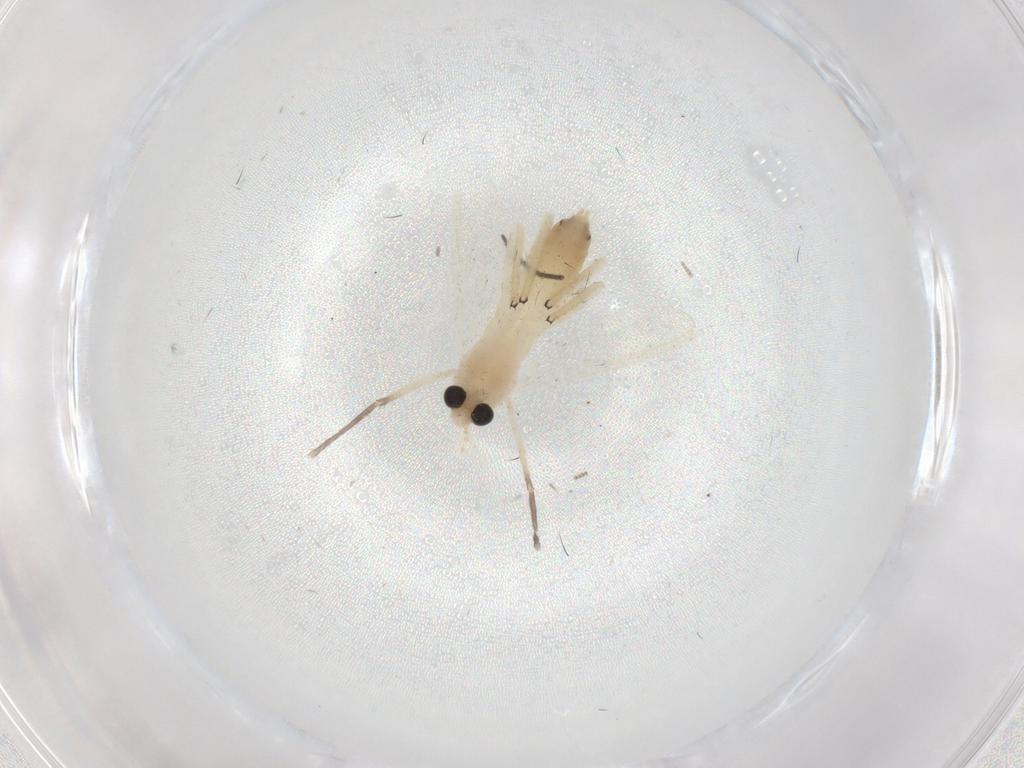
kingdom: Animalia
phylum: Arthropoda
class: Insecta
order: Diptera
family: Chironomidae
